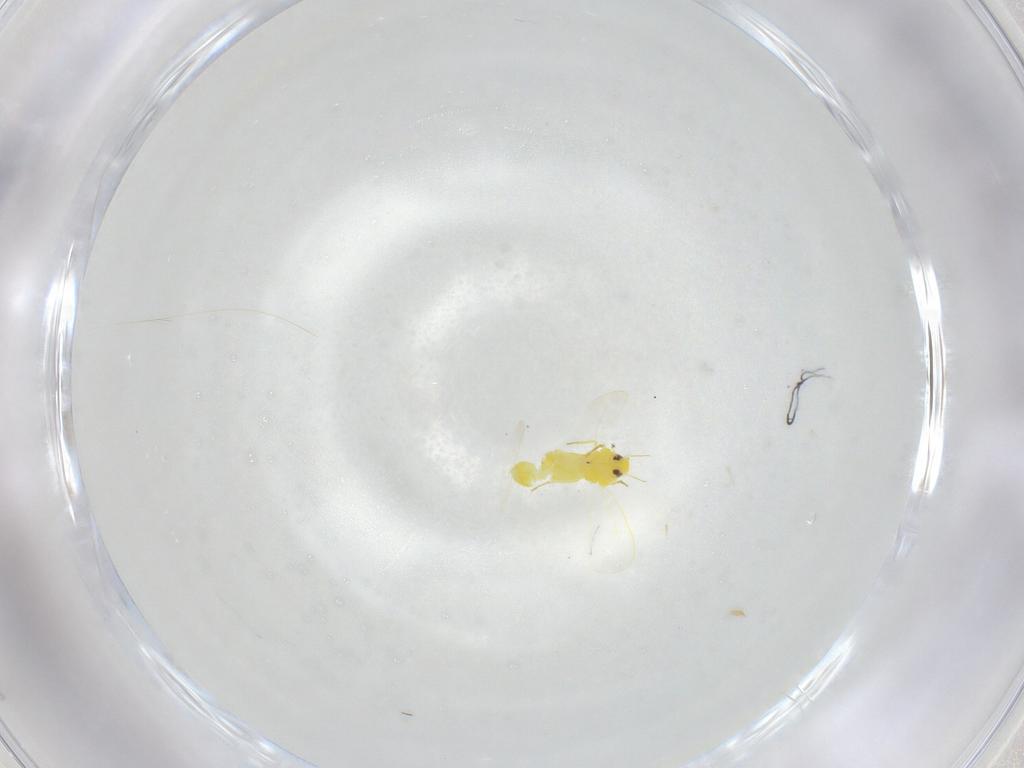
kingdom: Animalia
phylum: Arthropoda
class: Insecta
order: Hemiptera
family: Aleyrodidae
